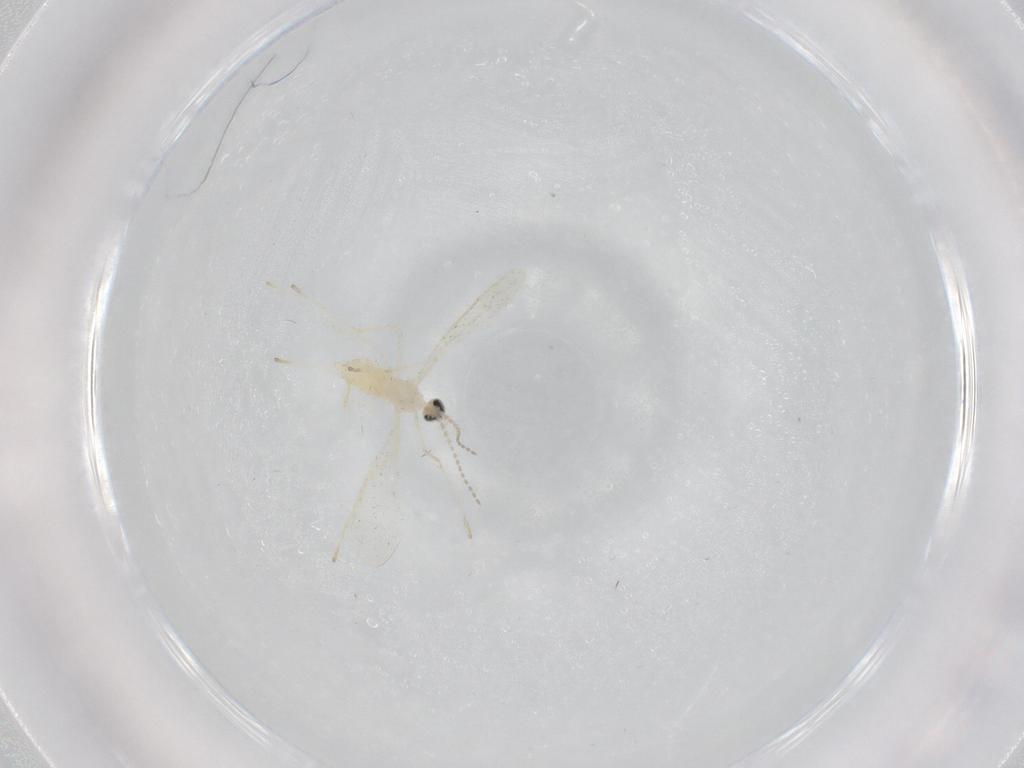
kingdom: Animalia
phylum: Arthropoda
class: Insecta
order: Diptera
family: Cecidomyiidae
